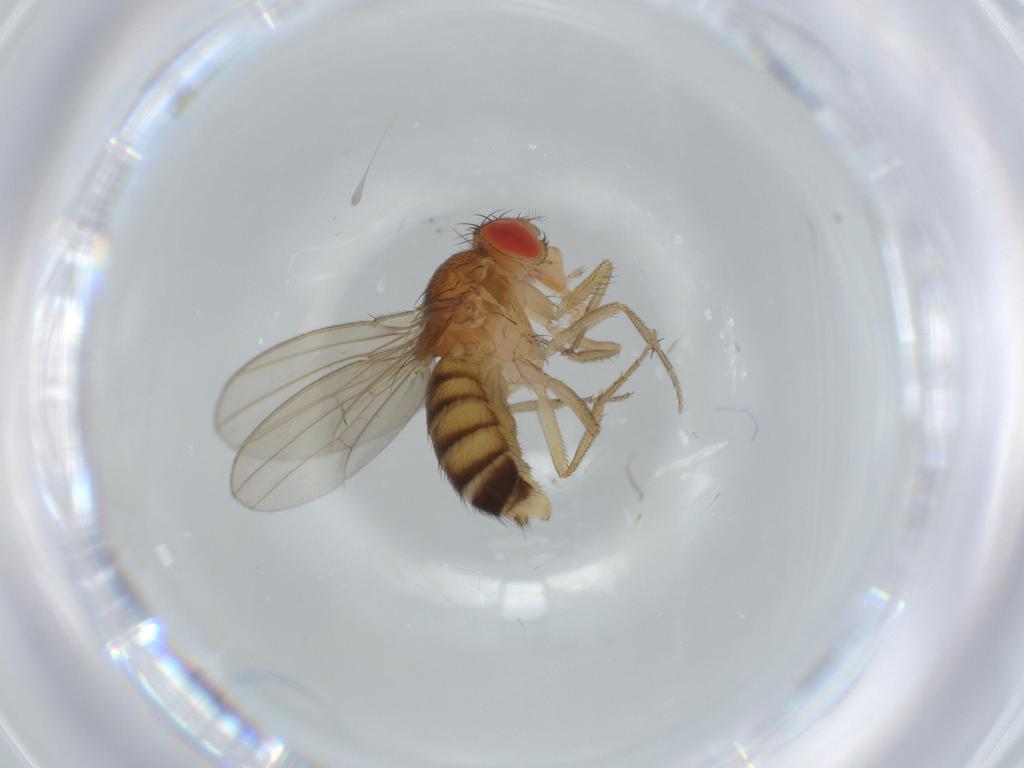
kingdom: Animalia
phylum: Arthropoda
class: Insecta
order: Diptera
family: Drosophilidae
